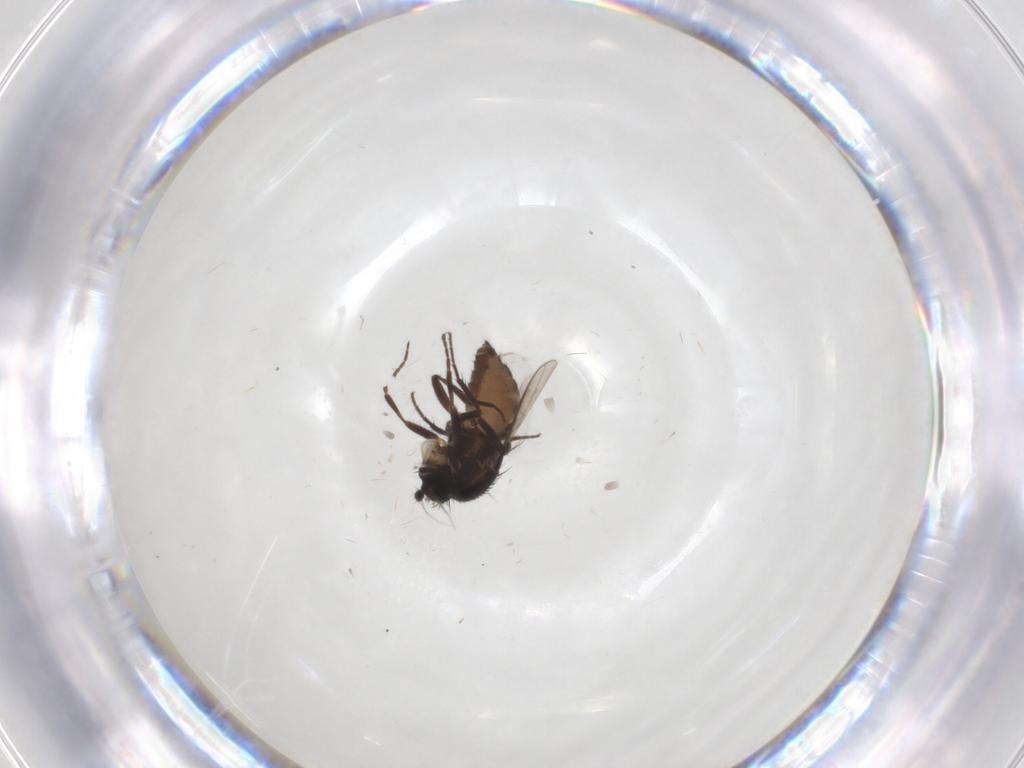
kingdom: Animalia
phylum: Arthropoda
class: Insecta
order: Diptera
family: Sphaeroceridae
